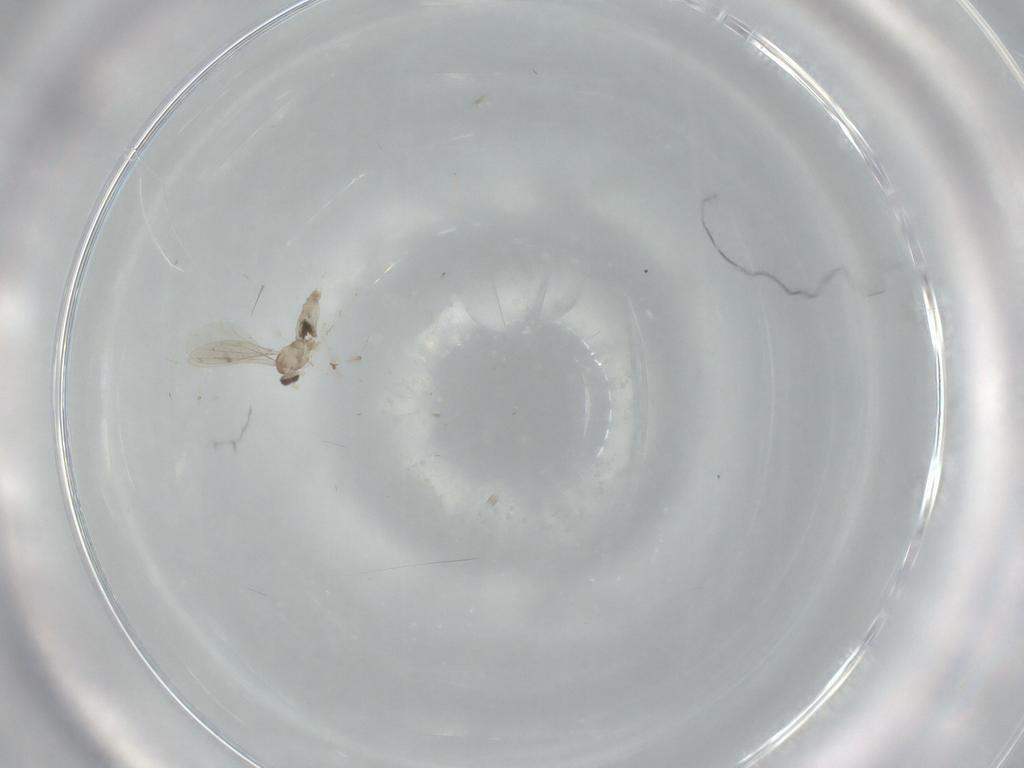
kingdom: Animalia
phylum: Arthropoda
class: Insecta
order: Diptera
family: Cecidomyiidae
